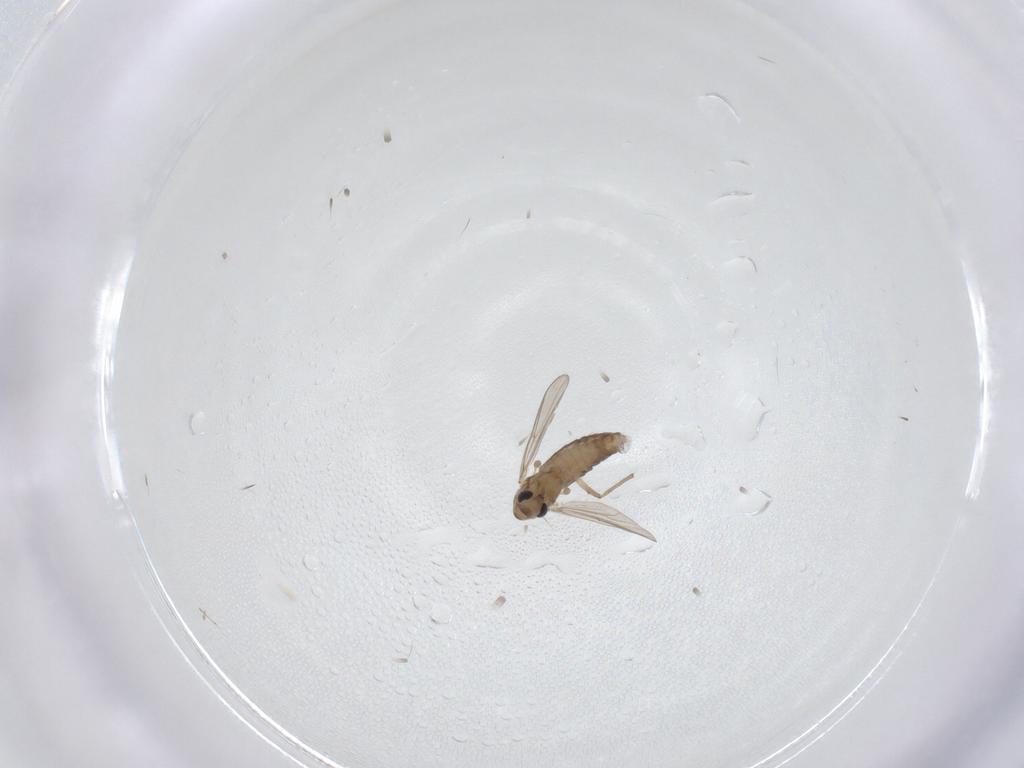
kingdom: Animalia
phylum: Arthropoda
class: Insecta
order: Diptera
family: Chironomidae
